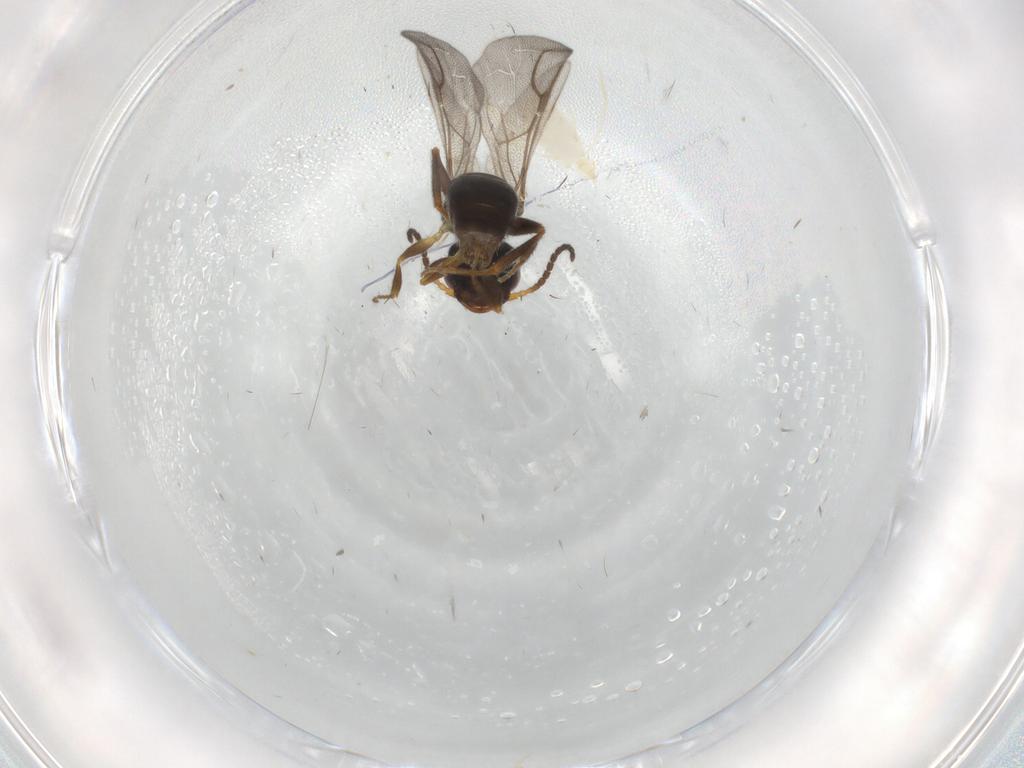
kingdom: Animalia
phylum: Arthropoda
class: Insecta
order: Hymenoptera
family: Bethylidae
